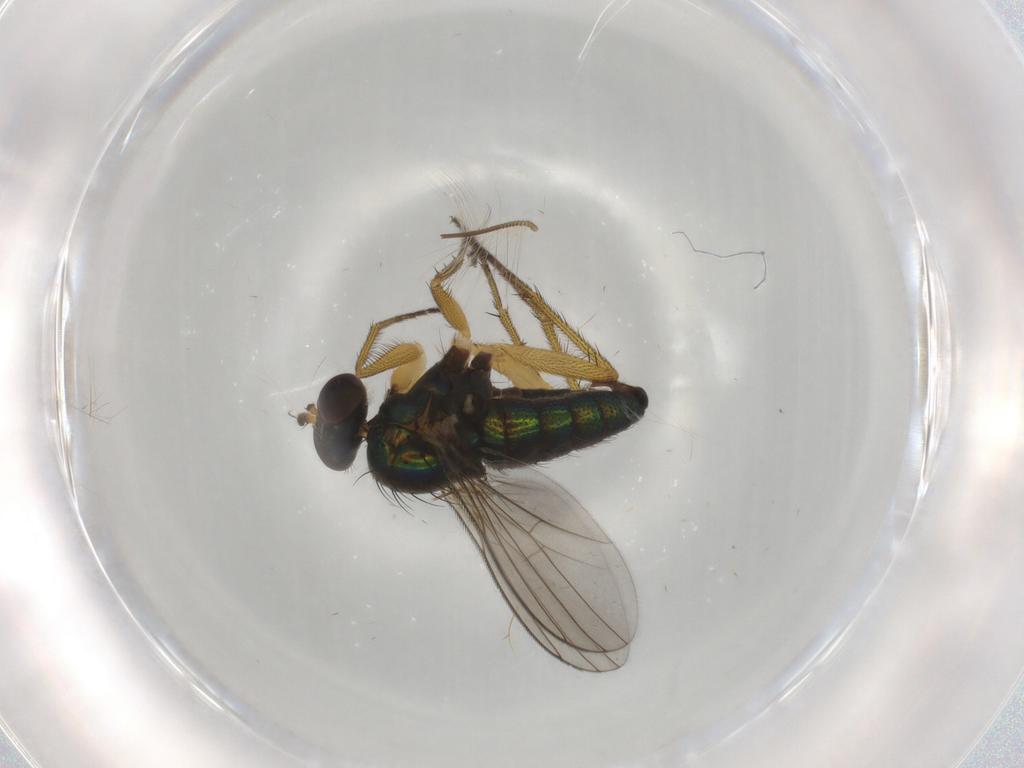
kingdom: Animalia
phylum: Arthropoda
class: Insecta
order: Diptera
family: Dolichopodidae
